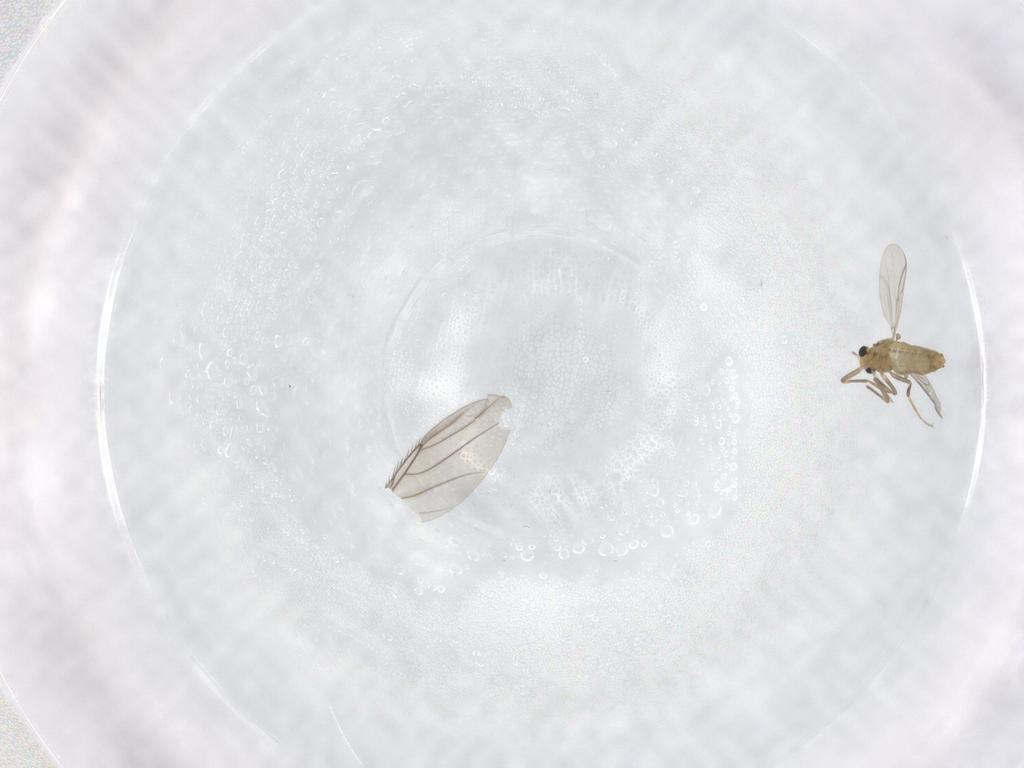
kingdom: Animalia
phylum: Arthropoda
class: Insecta
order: Diptera
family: Chironomidae
